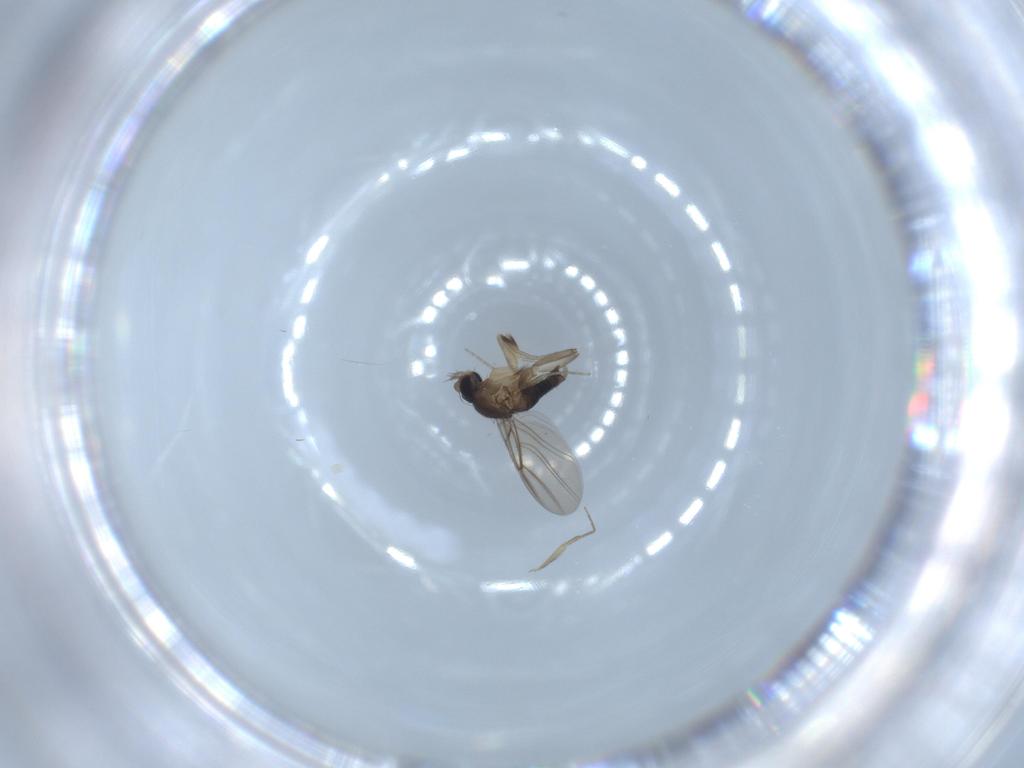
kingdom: Animalia
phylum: Arthropoda
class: Insecta
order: Diptera
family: Phoridae
